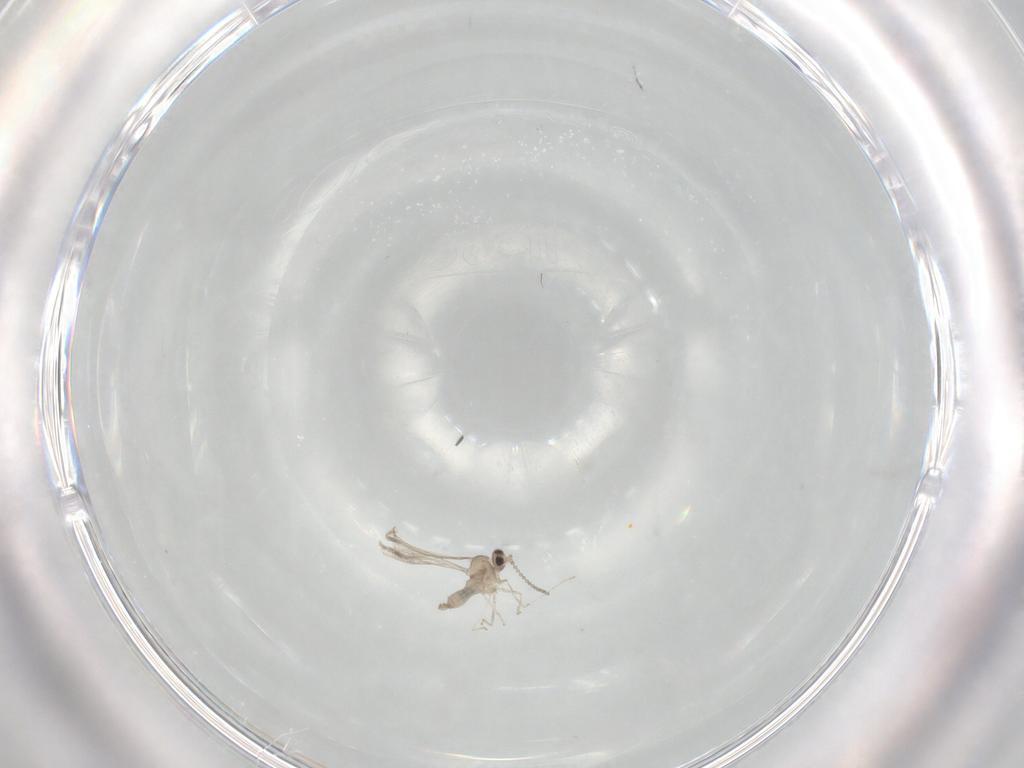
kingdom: Animalia
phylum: Arthropoda
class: Insecta
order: Diptera
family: Cecidomyiidae
